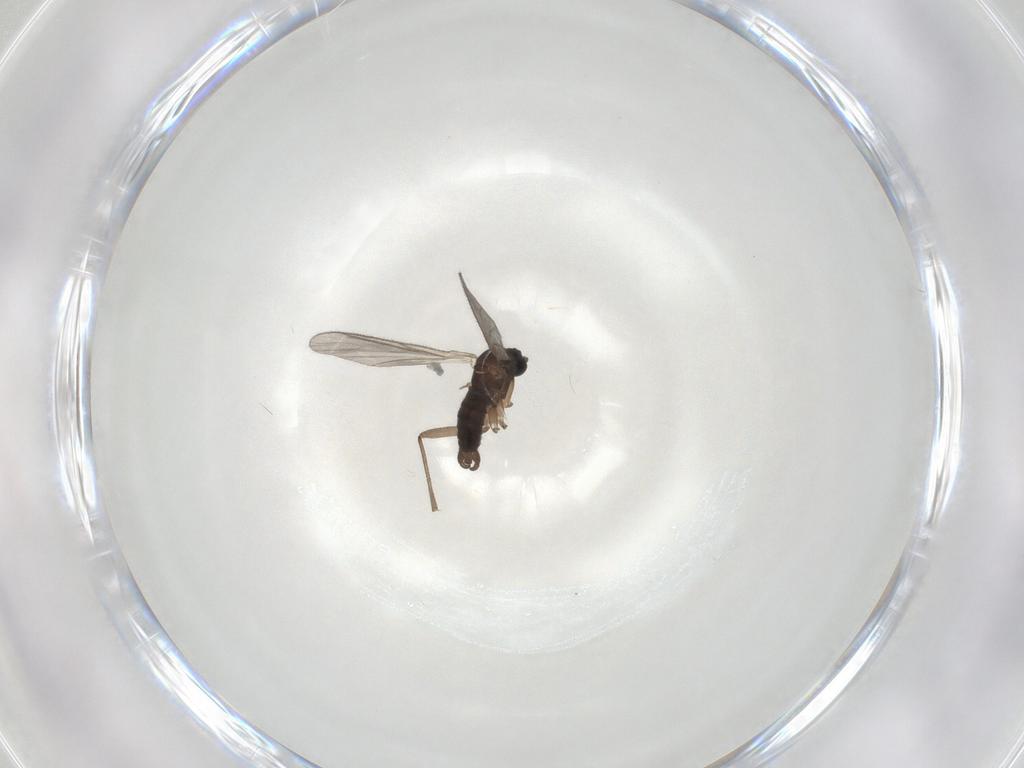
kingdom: Animalia
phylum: Arthropoda
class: Insecta
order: Diptera
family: Sciaridae
